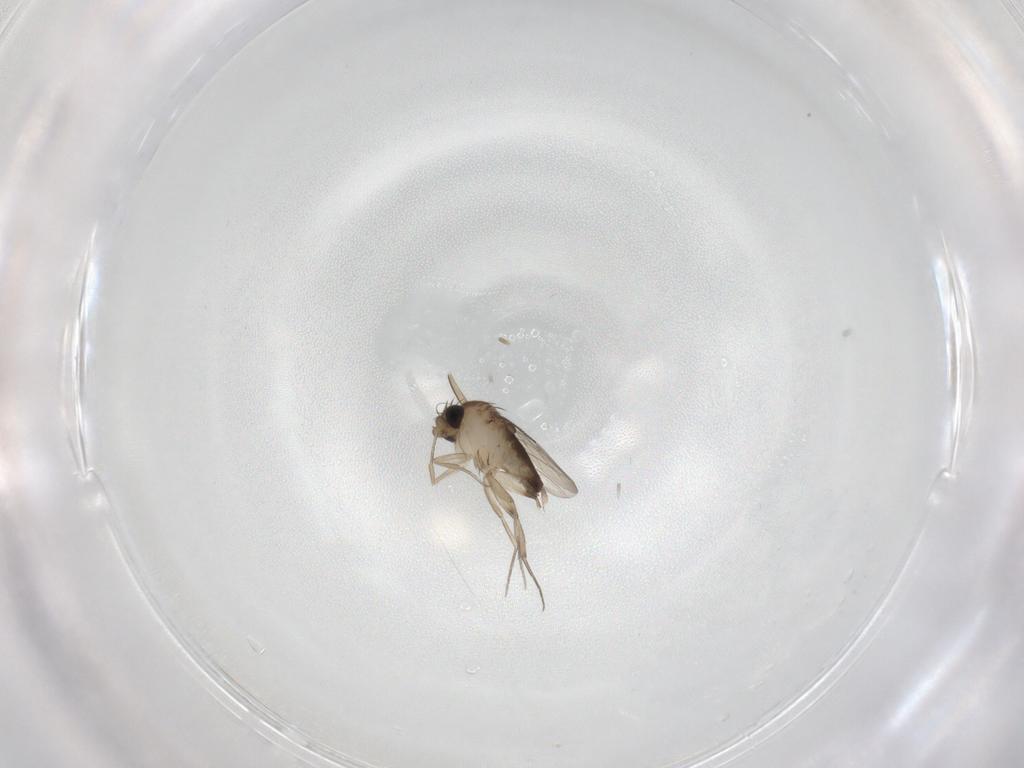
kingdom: Animalia
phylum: Arthropoda
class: Insecta
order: Diptera
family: Phoridae
